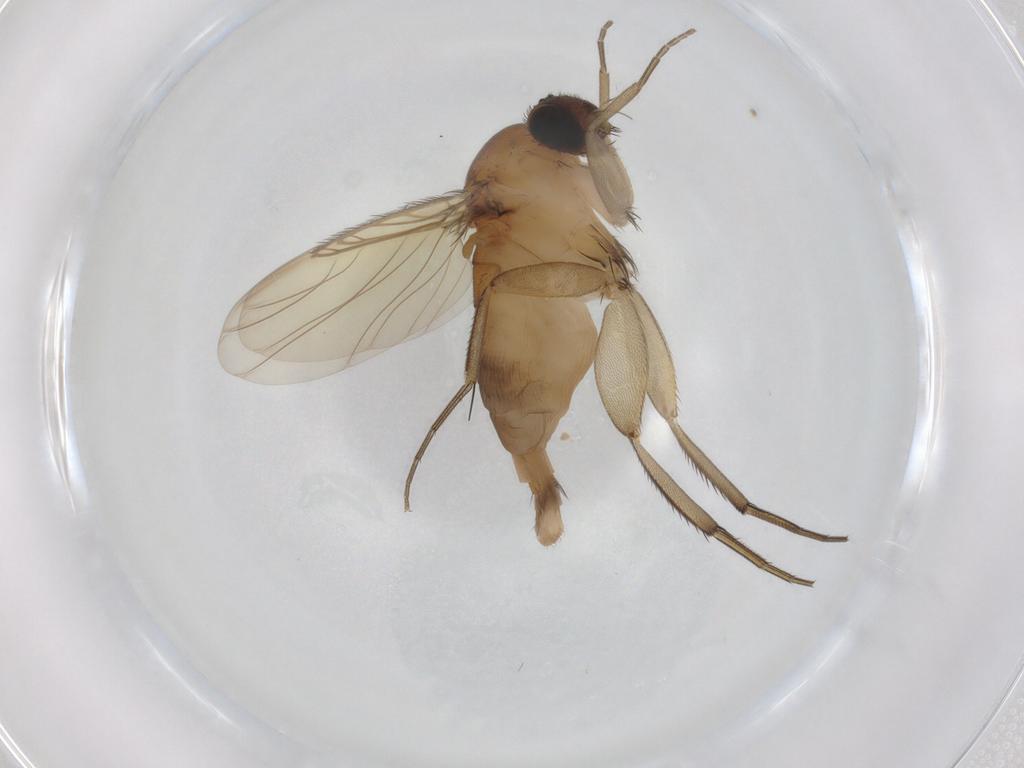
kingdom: Animalia
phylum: Arthropoda
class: Insecta
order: Diptera
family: Phoridae
